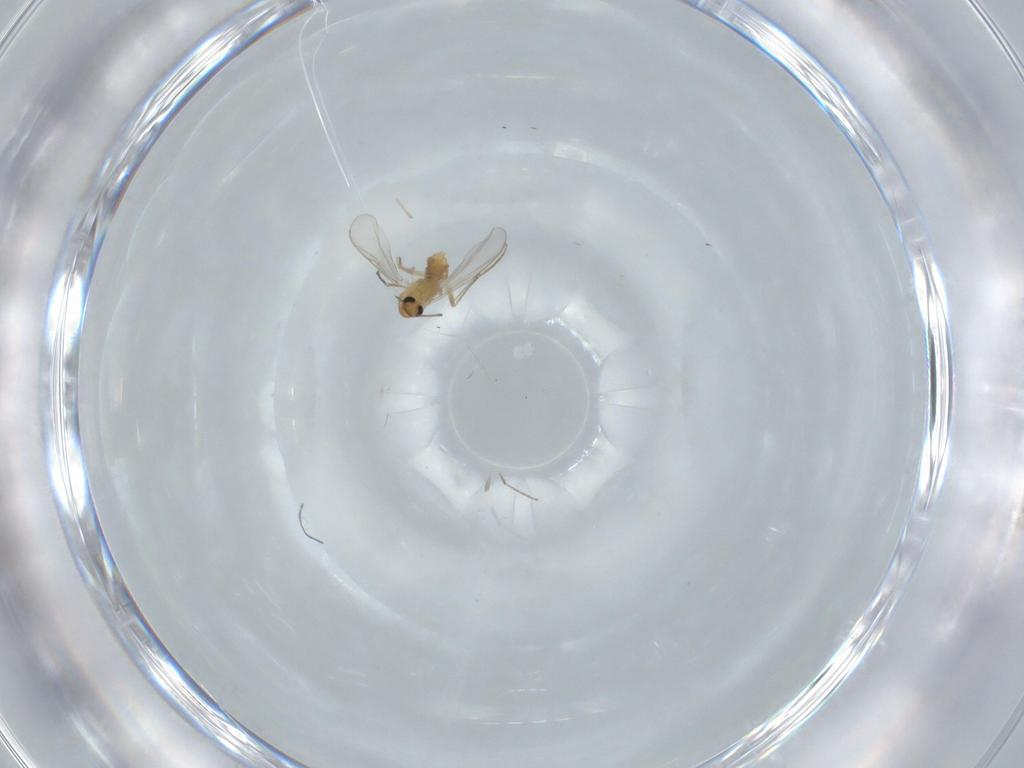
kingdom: Animalia
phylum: Arthropoda
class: Insecta
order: Diptera
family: Chironomidae
